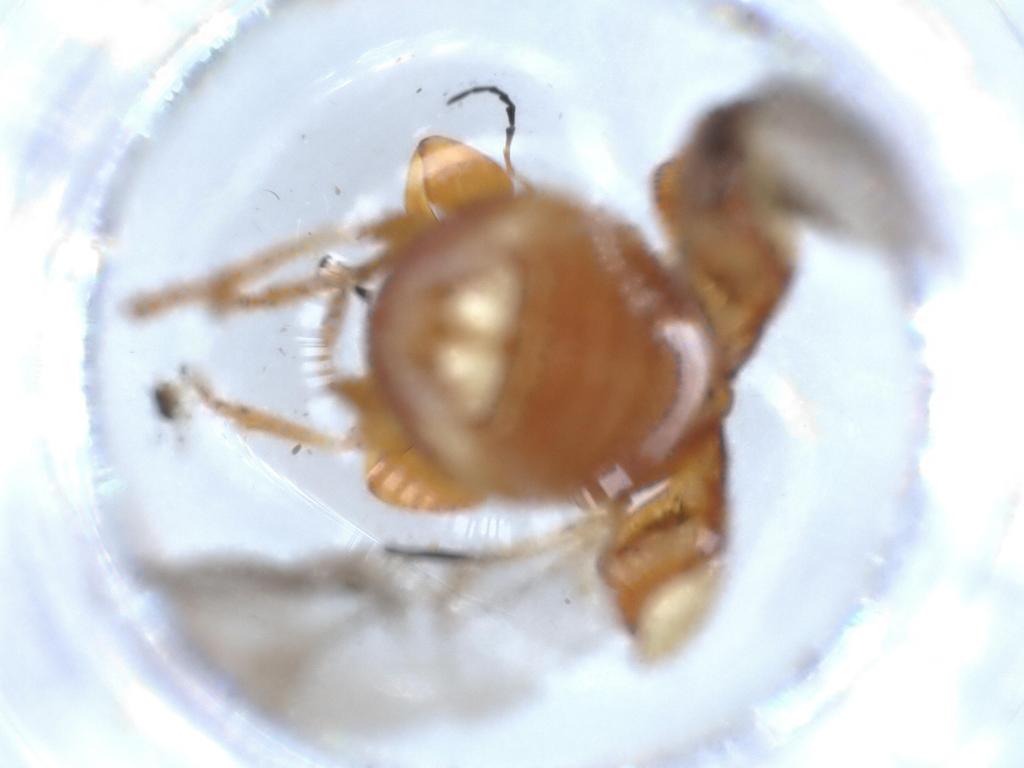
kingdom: Animalia
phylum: Arthropoda
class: Insecta
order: Coleoptera
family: Chrysomelidae
